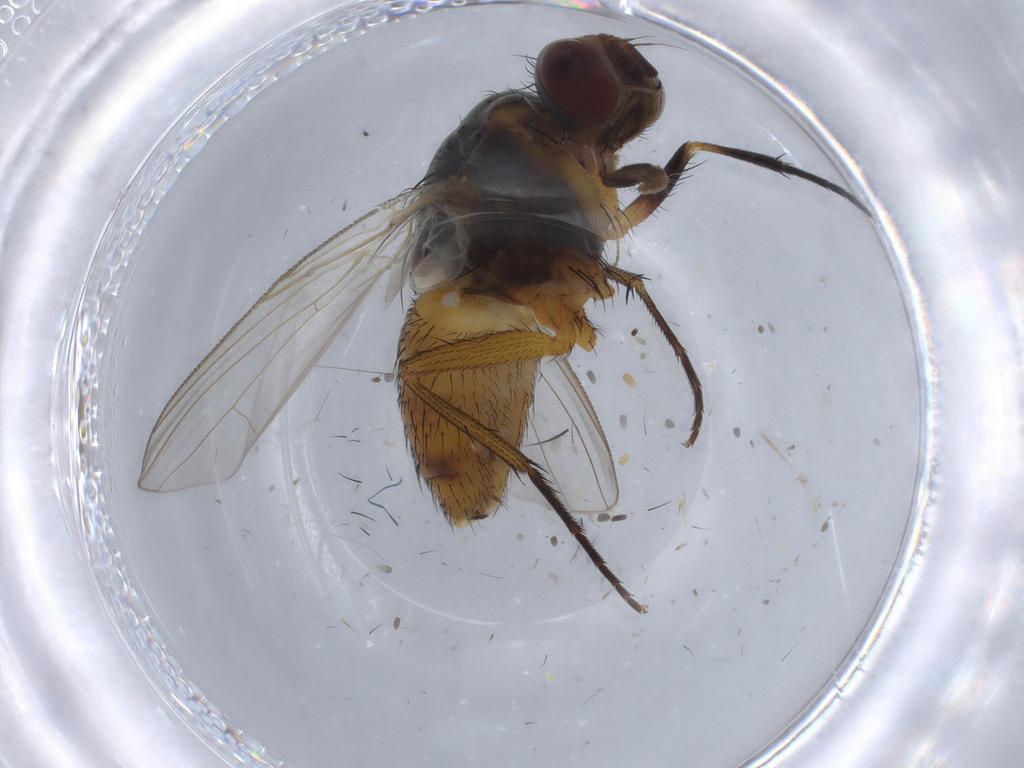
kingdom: Animalia
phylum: Arthropoda
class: Insecta
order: Diptera
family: Muscidae
